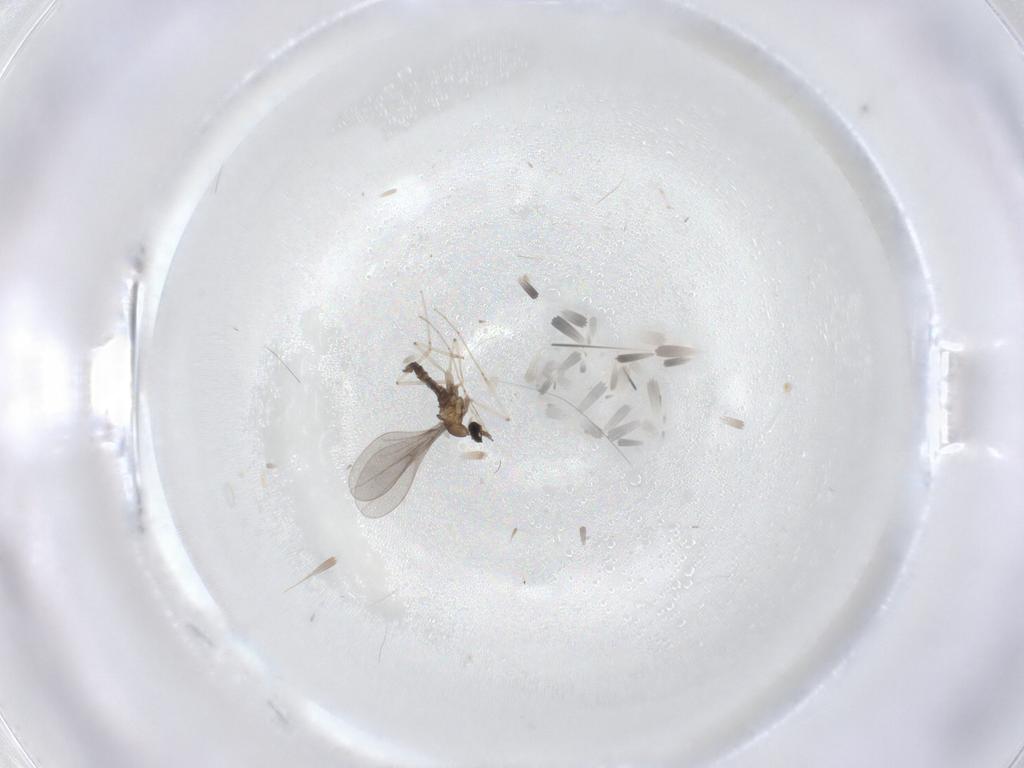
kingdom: Animalia
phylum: Arthropoda
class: Insecta
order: Diptera
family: Cecidomyiidae
